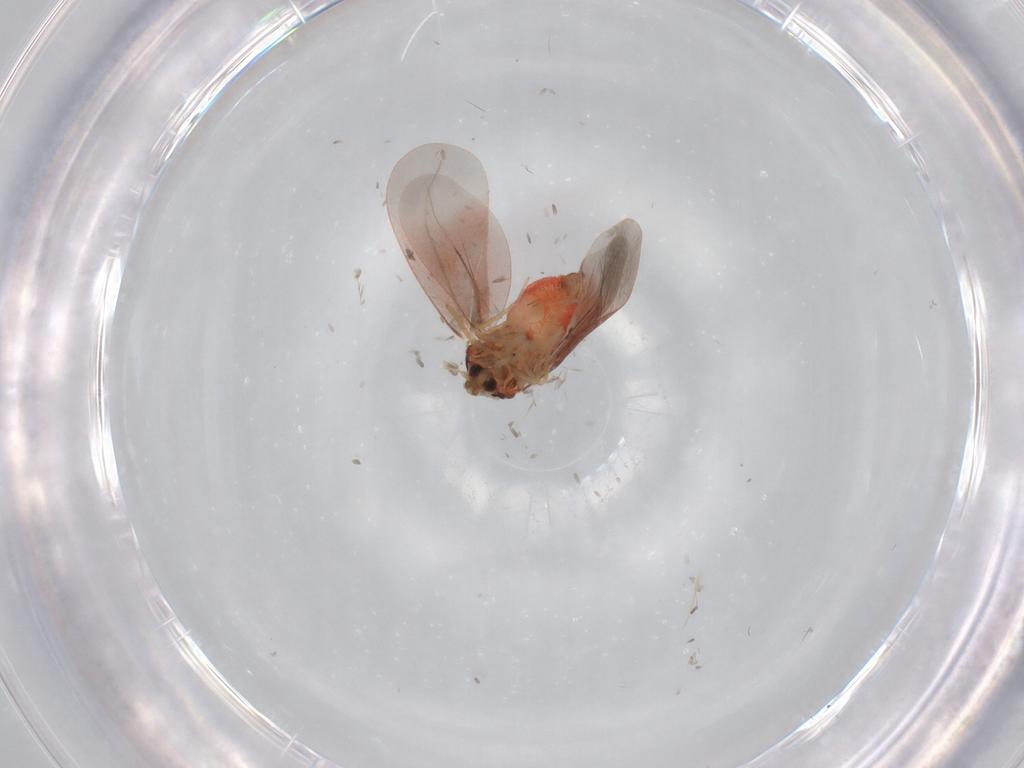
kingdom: Animalia
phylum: Arthropoda
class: Insecta
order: Hemiptera
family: Aleyrodidae
